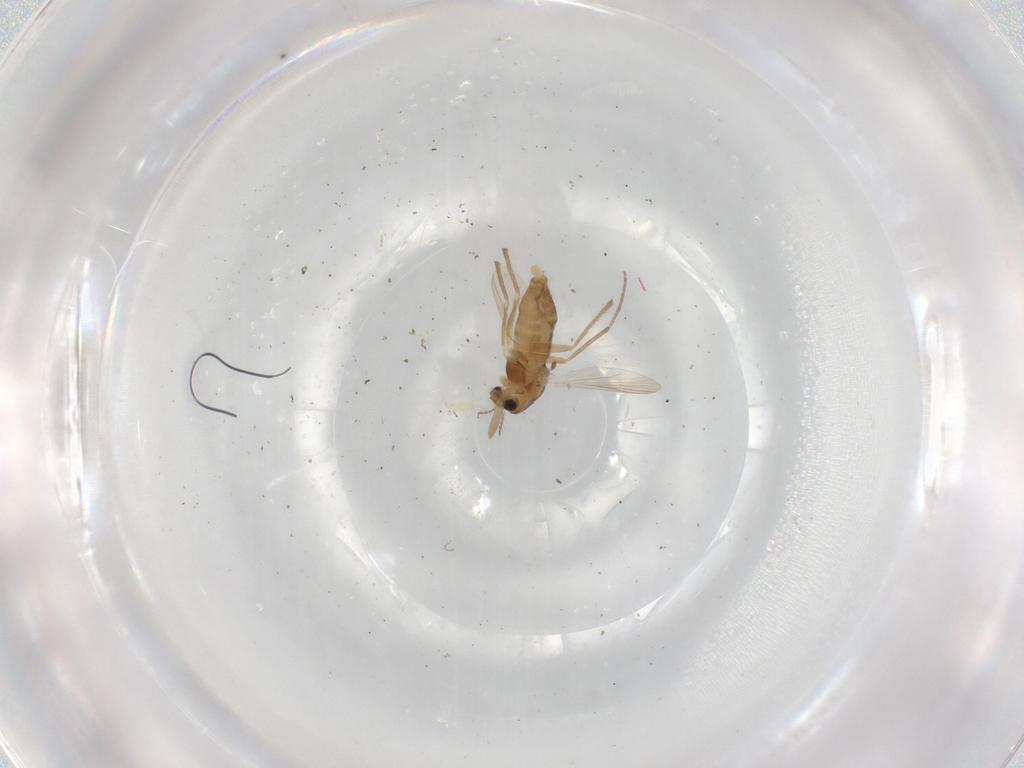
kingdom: Animalia
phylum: Arthropoda
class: Insecta
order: Diptera
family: Chironomidae
